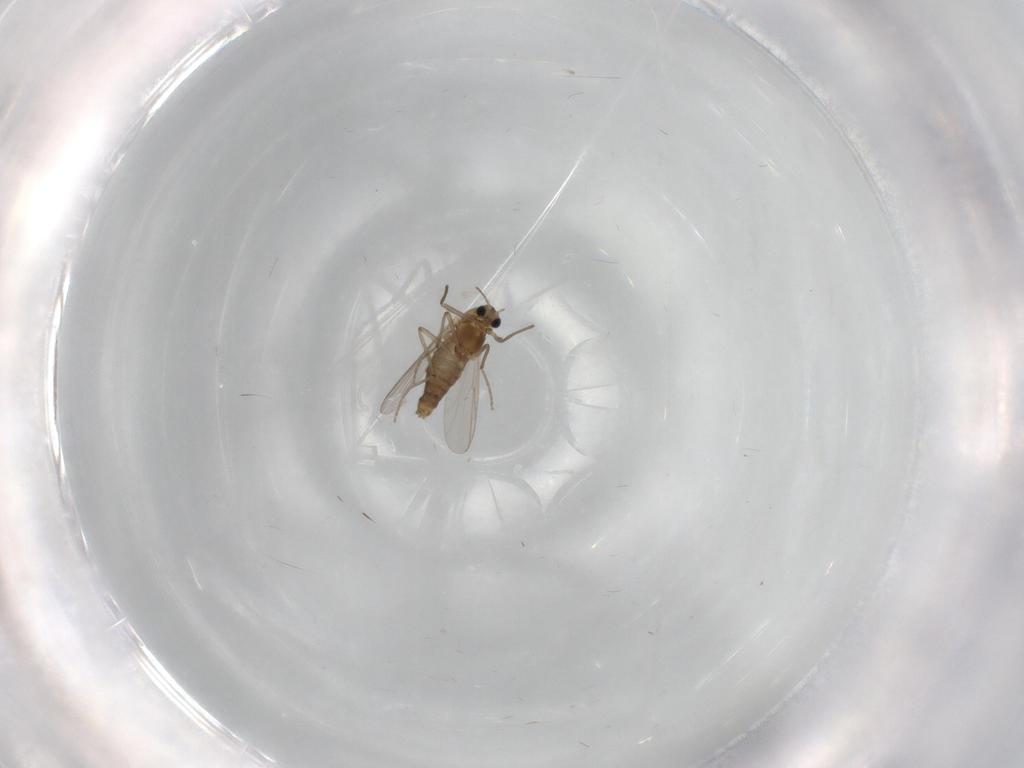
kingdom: Animalia
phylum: Arthropoda
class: Insecta
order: Diptera
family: Chironomidae
